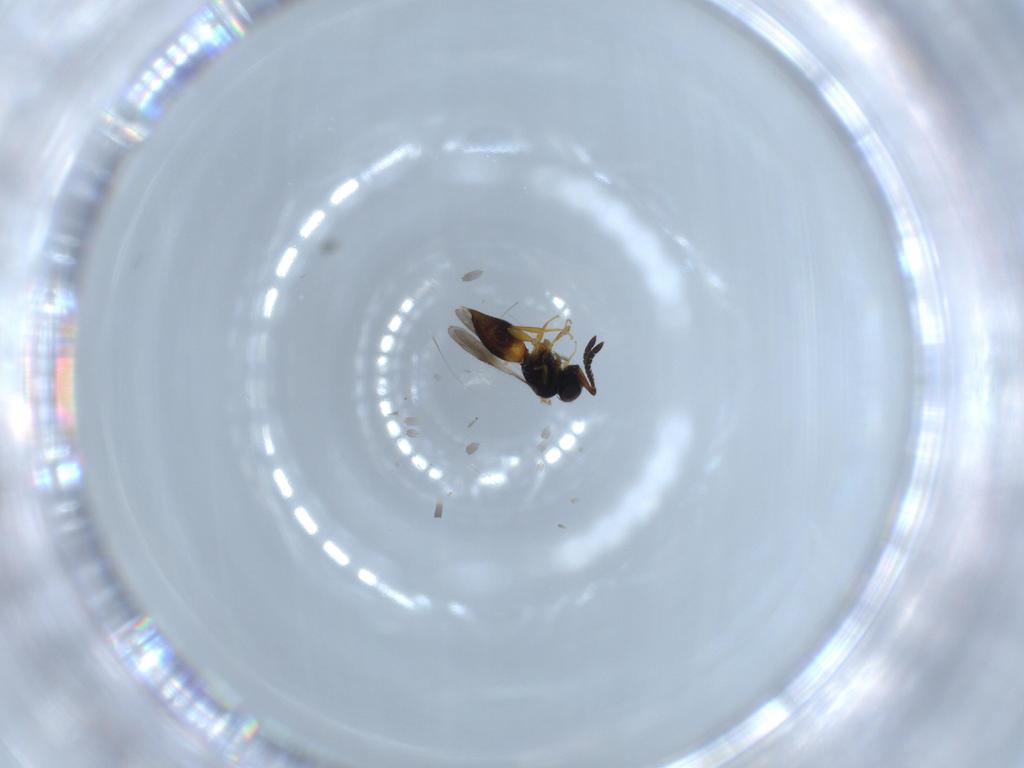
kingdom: Animalia
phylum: Arthropoda
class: Insecta
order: Hymenoptera
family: Ceraphronidae
